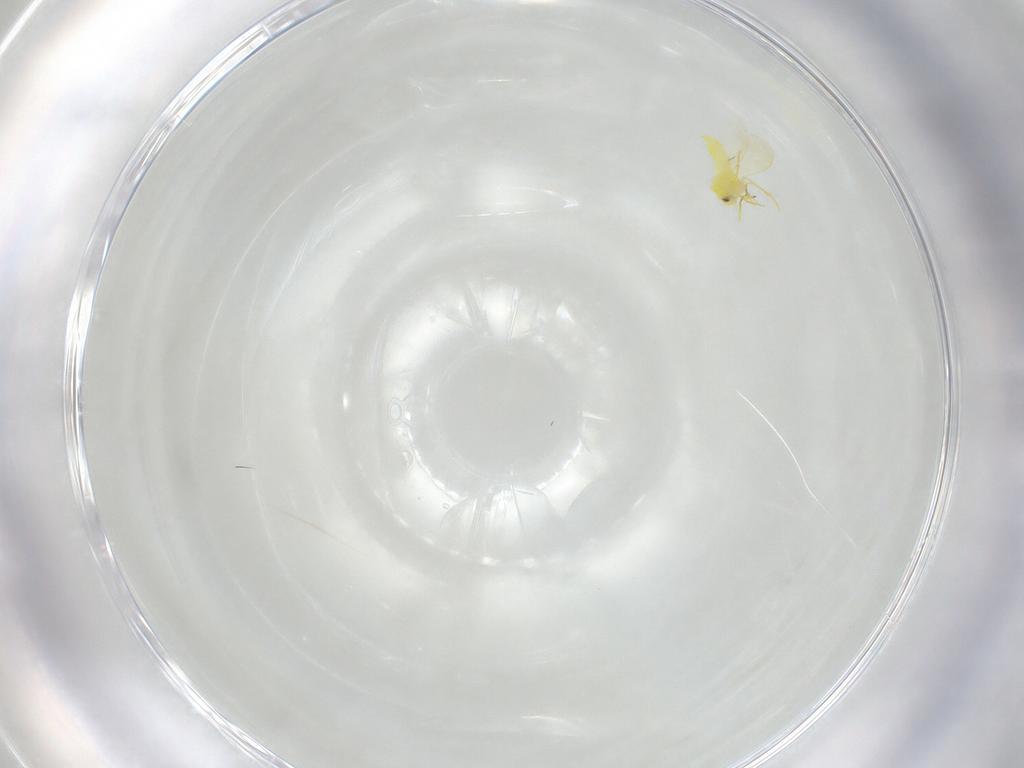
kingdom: Animalia
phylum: Arthropoda
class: Insecta
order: Hemiptera
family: Aleyrodidae
